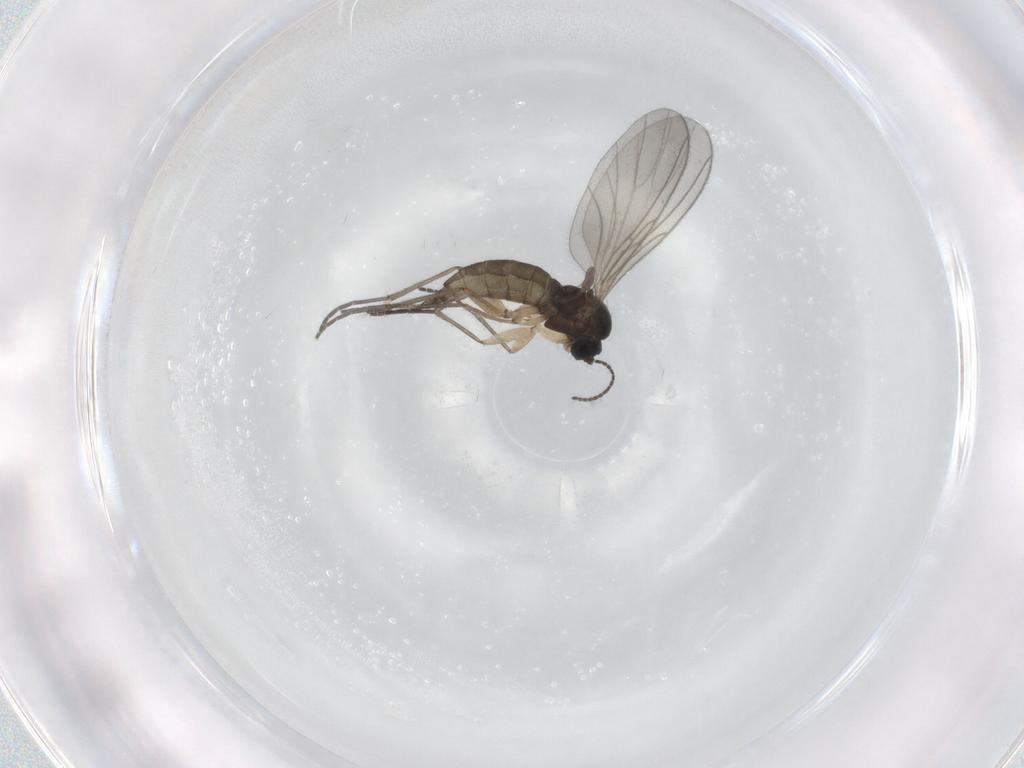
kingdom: Animalia
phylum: Arthropoda
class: Insecta
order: Diptera
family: Sciaridae
